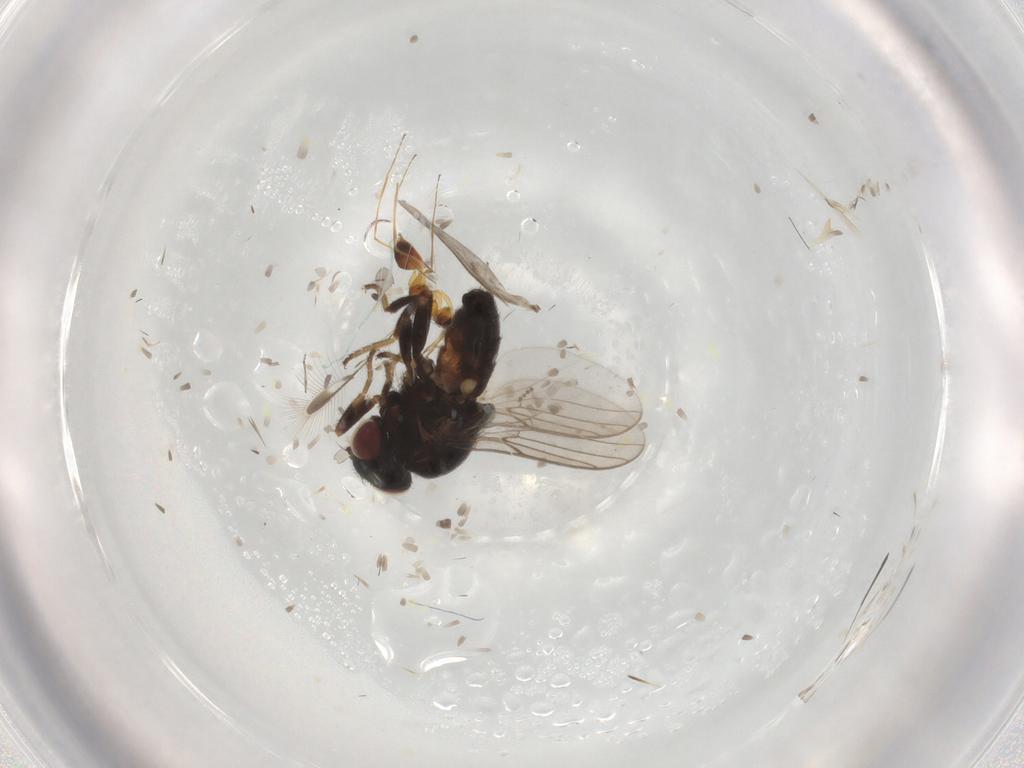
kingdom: Animalia
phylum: Arthropoda
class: Insecta
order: Diptera
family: Chloropidae
